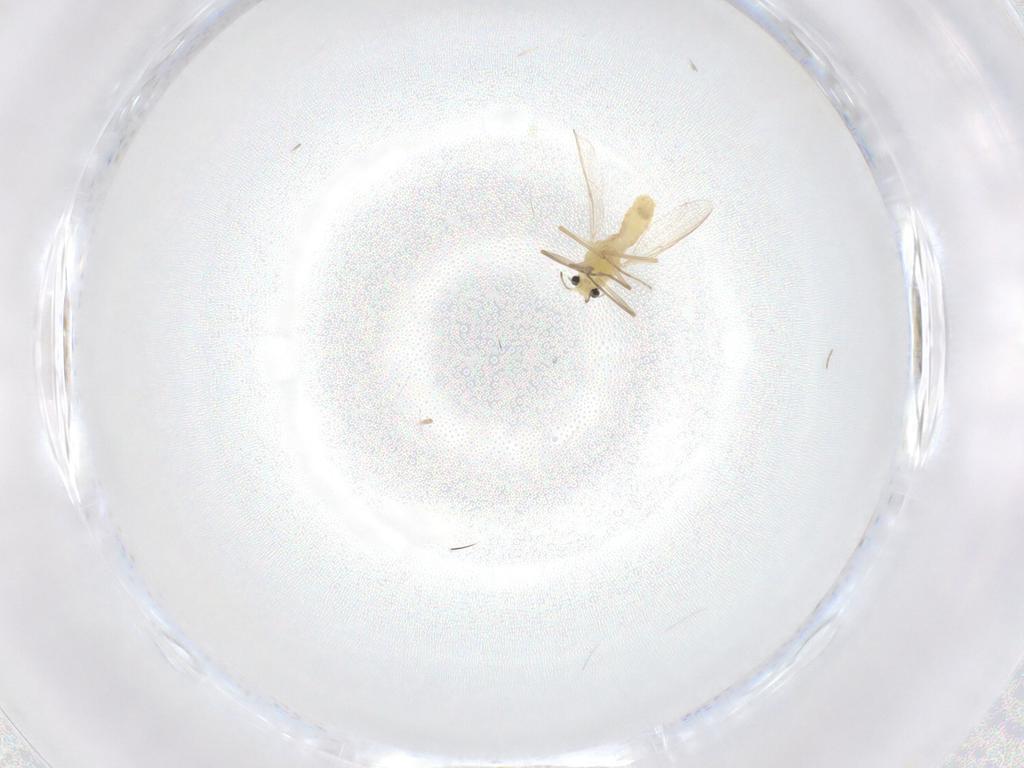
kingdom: Animalia
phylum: Arthropoda
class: Insecta
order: Diptera
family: Chironomidae
